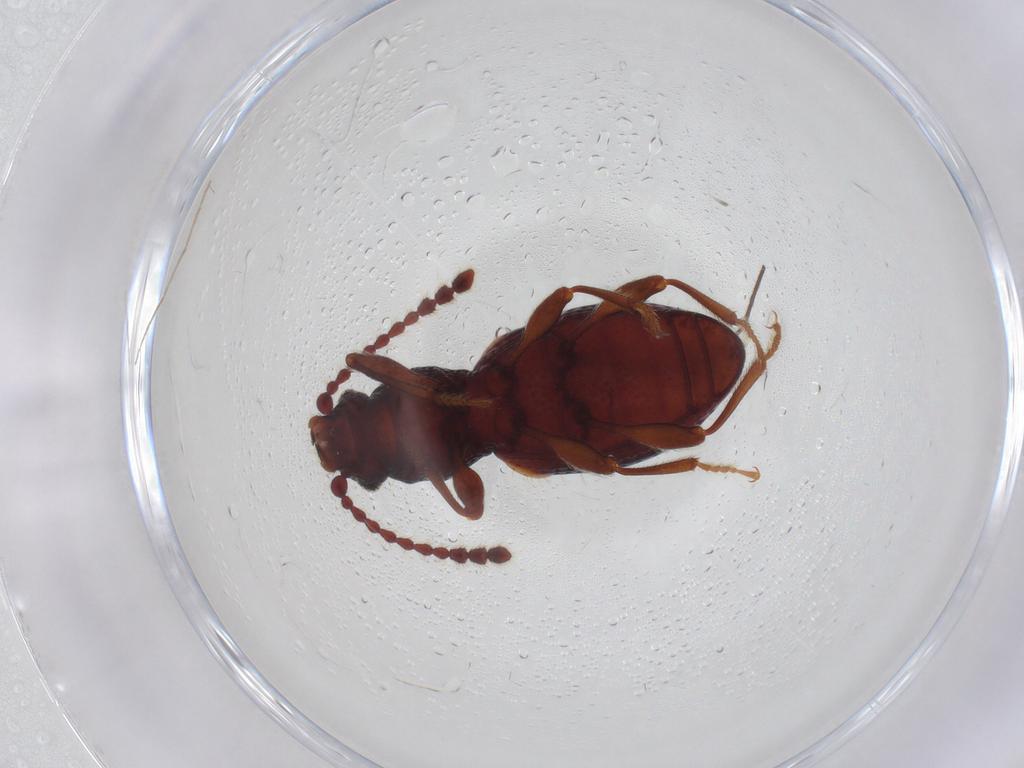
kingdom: Animalia
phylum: Arthropoda
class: Insecta
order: Coleoptera
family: Ptinidae
